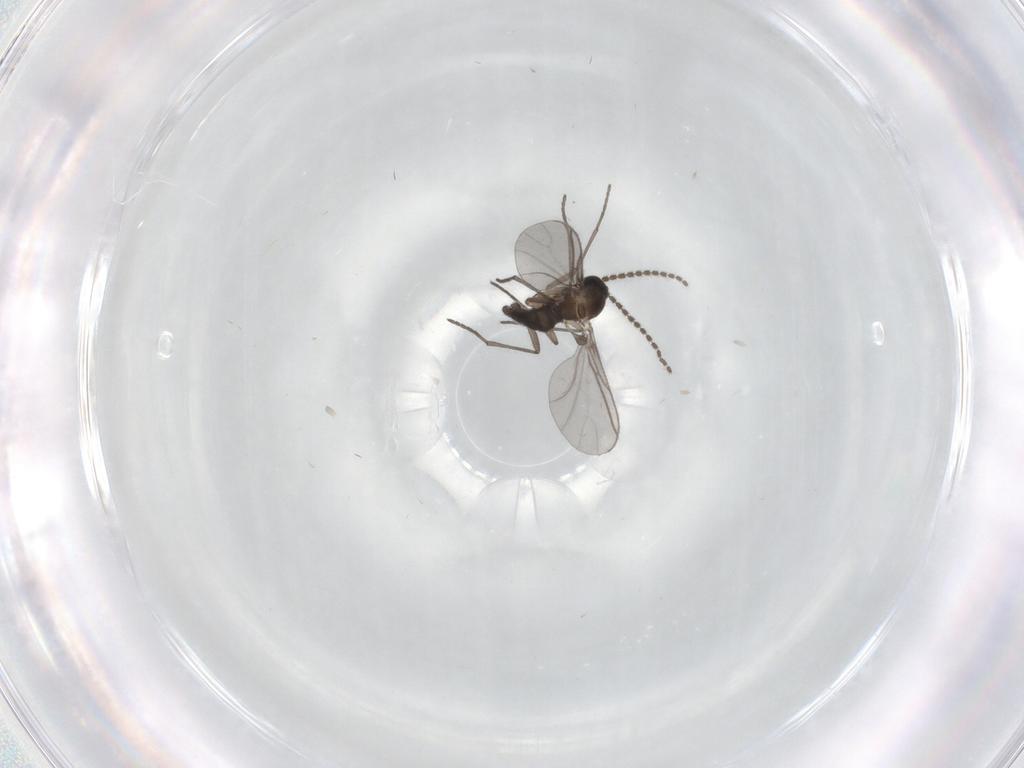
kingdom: Animalia
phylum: Arthropoda
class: Insecta
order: Diptera
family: Sciaridae
